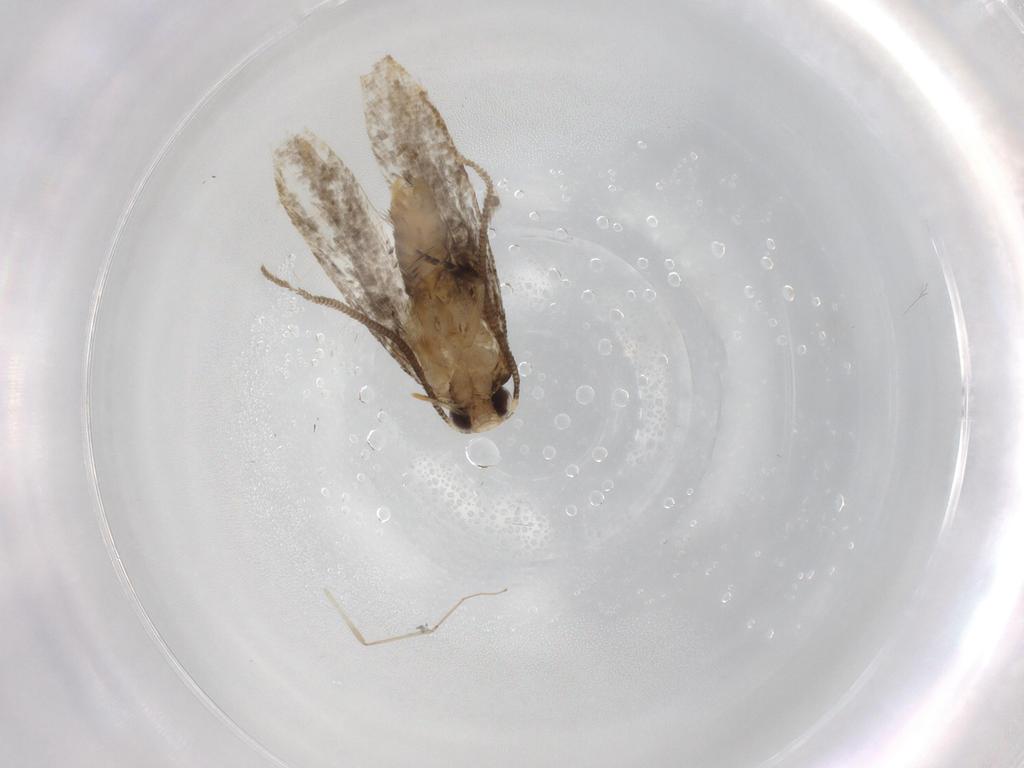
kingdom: Animalia
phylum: Arthropoda
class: Insecta
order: Lepidoptera
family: Tineidae
